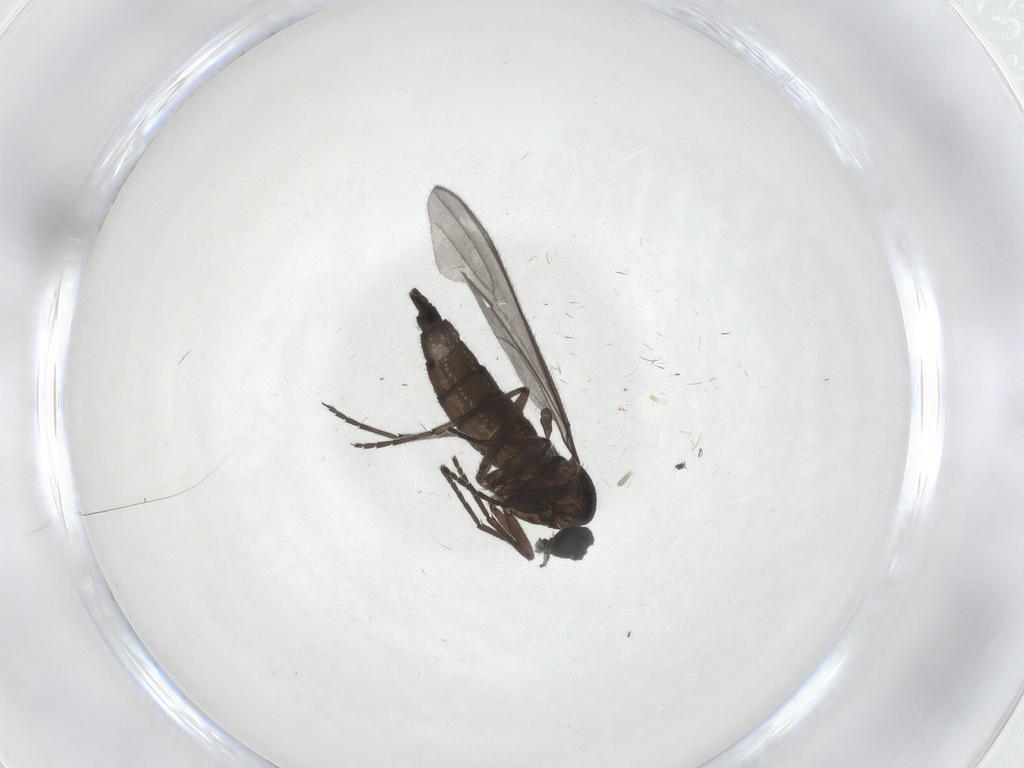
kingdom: Animalia
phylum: Arthropoda
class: Insecta
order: Diptera
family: Sciaridae
